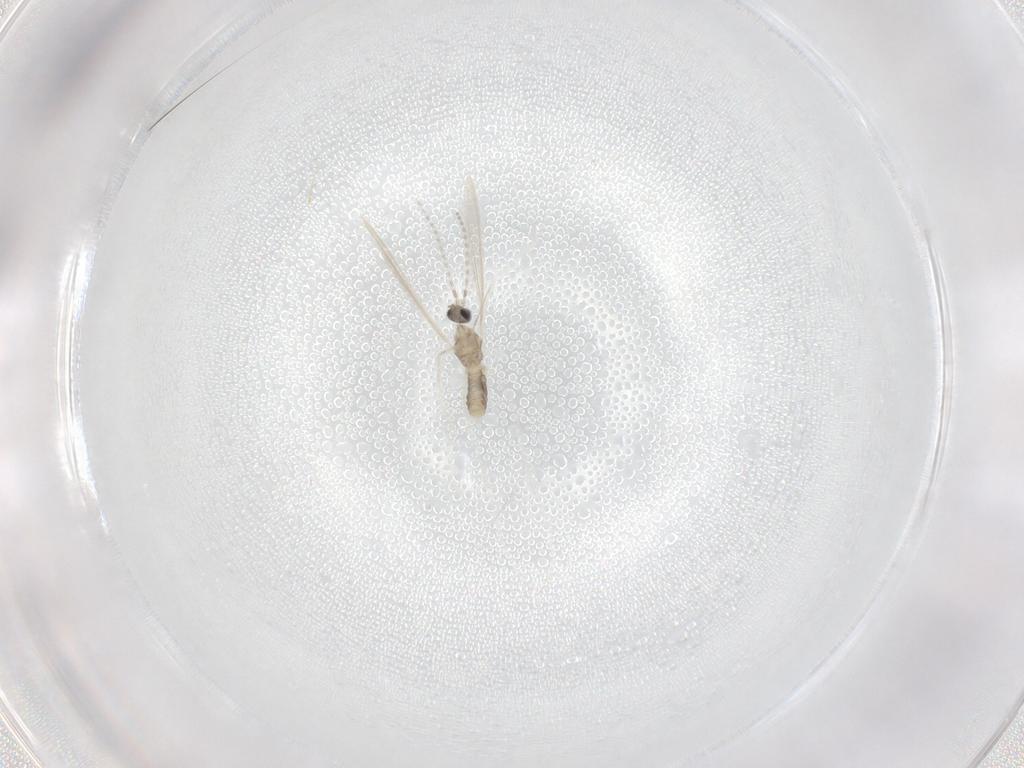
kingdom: Animalia
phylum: Arthropoda
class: Insecta
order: Diptera
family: Cecidomyiidae
